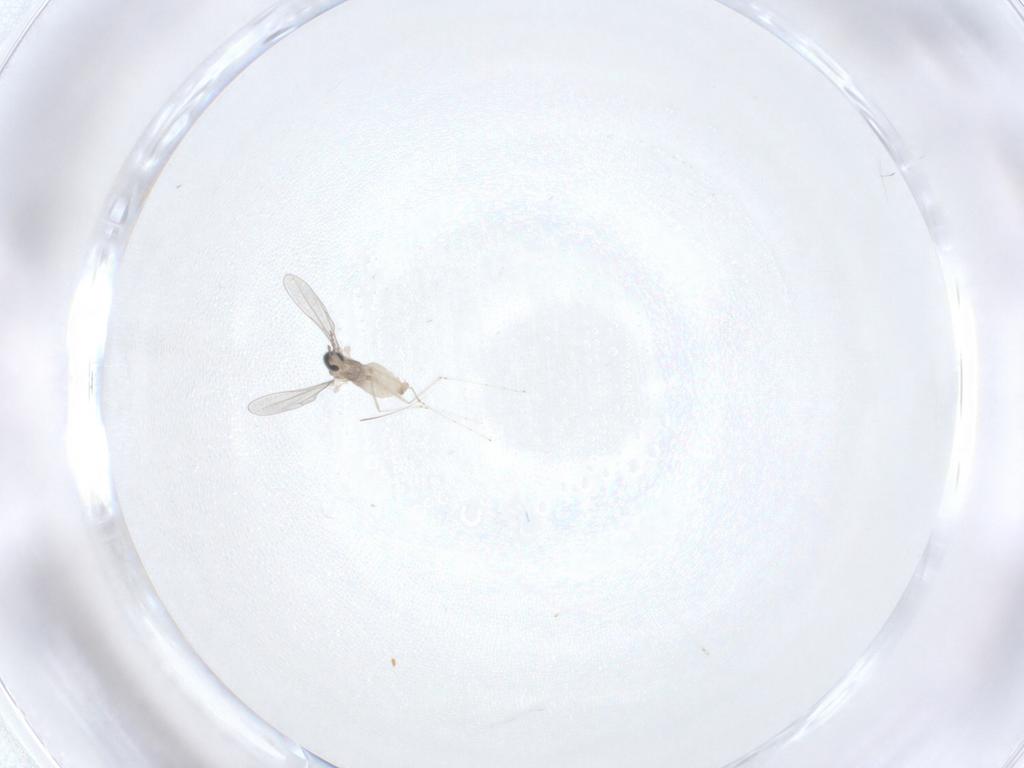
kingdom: Animalia
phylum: Arthropoda
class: Insecta
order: Diptera
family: Cecidomyiidae
